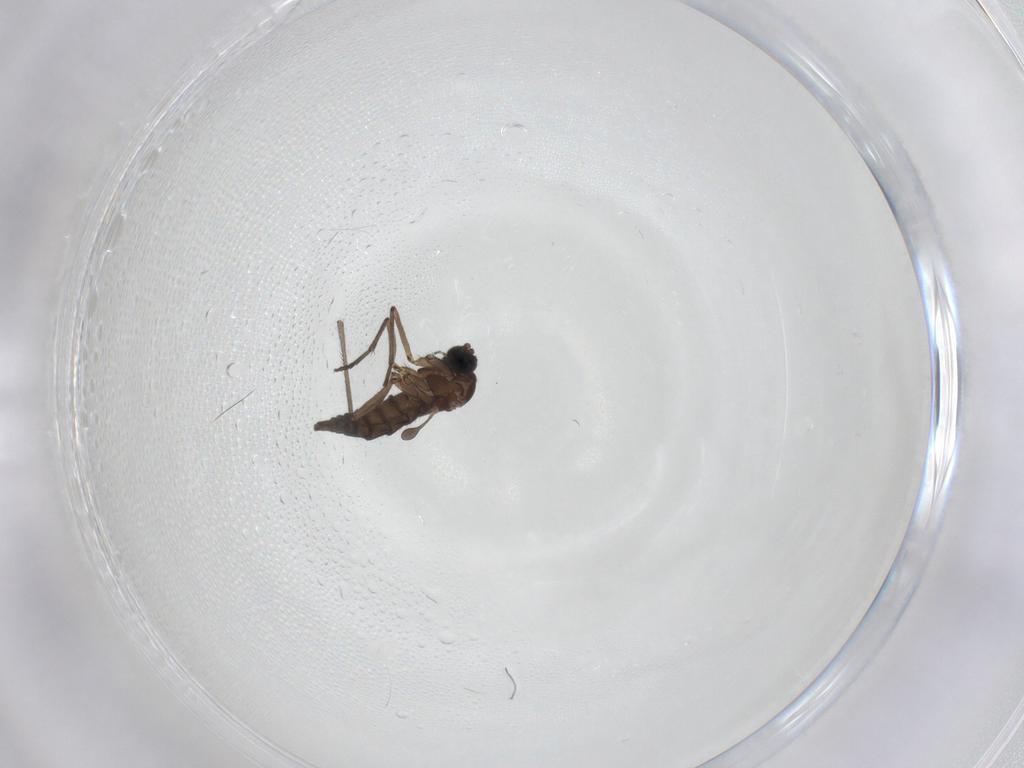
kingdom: Animalia
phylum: Arthropoda
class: Insecta
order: Diptera
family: Sciaridae
